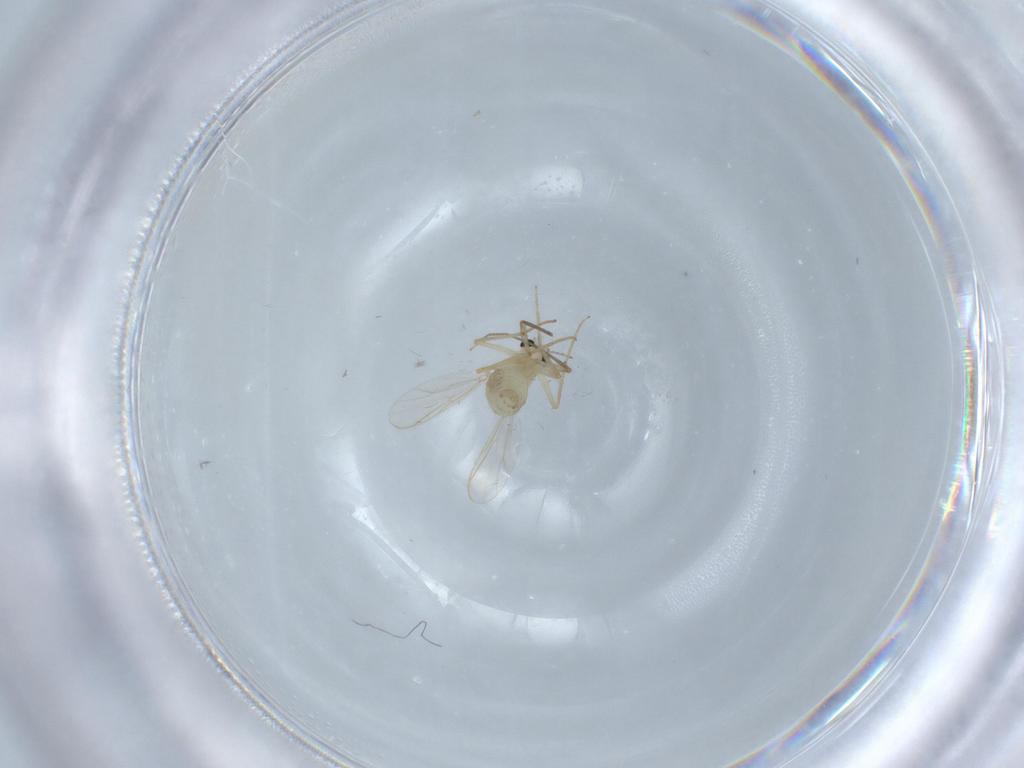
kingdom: Animalia
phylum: Arthropoda
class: Insecta
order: Diptera
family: Chironomidae
